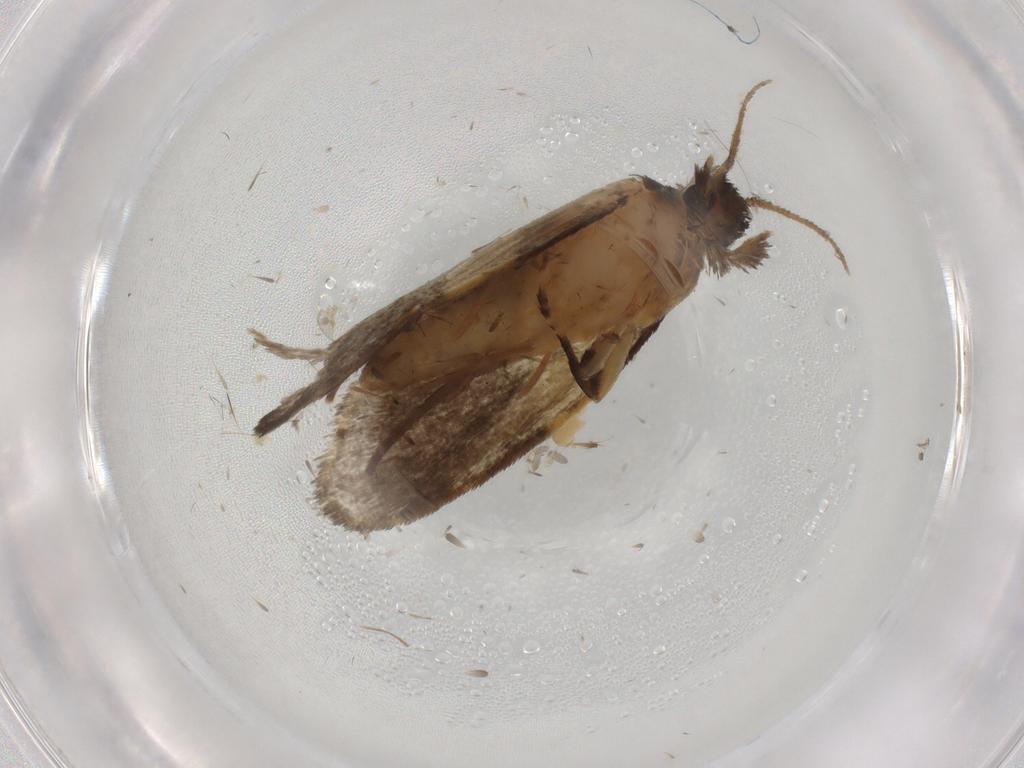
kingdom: Animalia
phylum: Arthropoda
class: Insecta
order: Lepidoptera
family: Psychidae
